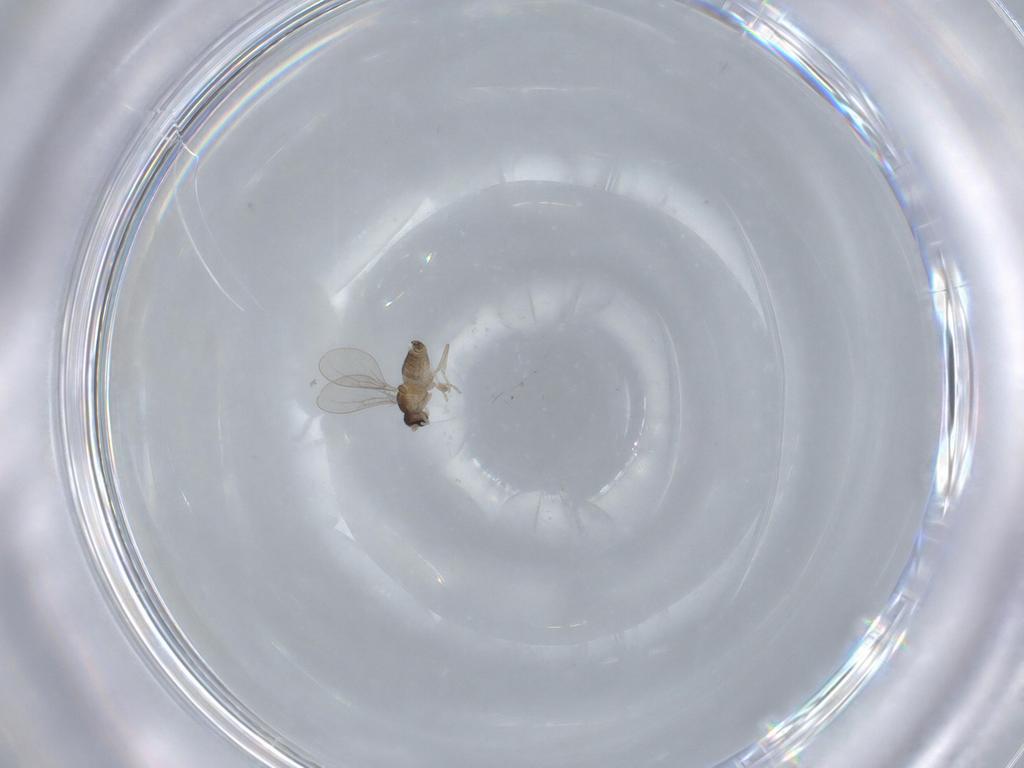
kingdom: Animalia
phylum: Arthropoda
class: Insecta
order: Diptera
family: Cecidomyiidae
